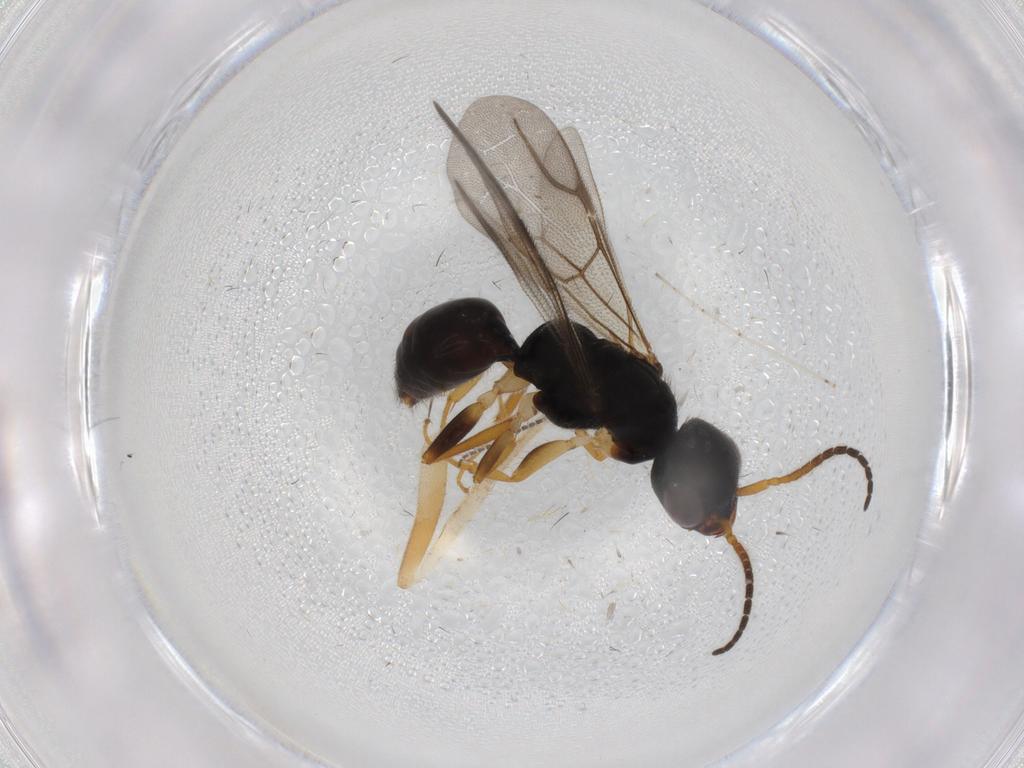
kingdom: Animalia
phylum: Arthropoda
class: Insecta
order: Hymenoptera
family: Bethylidae
